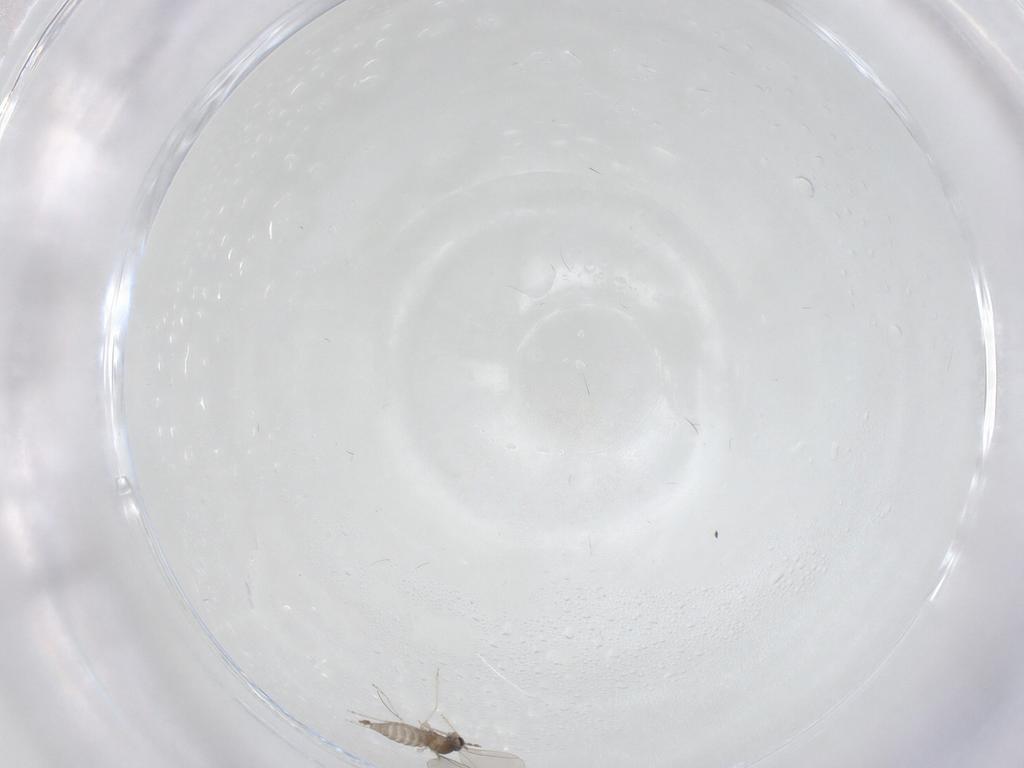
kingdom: Animalia
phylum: Arthropoda
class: Insecta
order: Diptera
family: Cecidomyiidae
